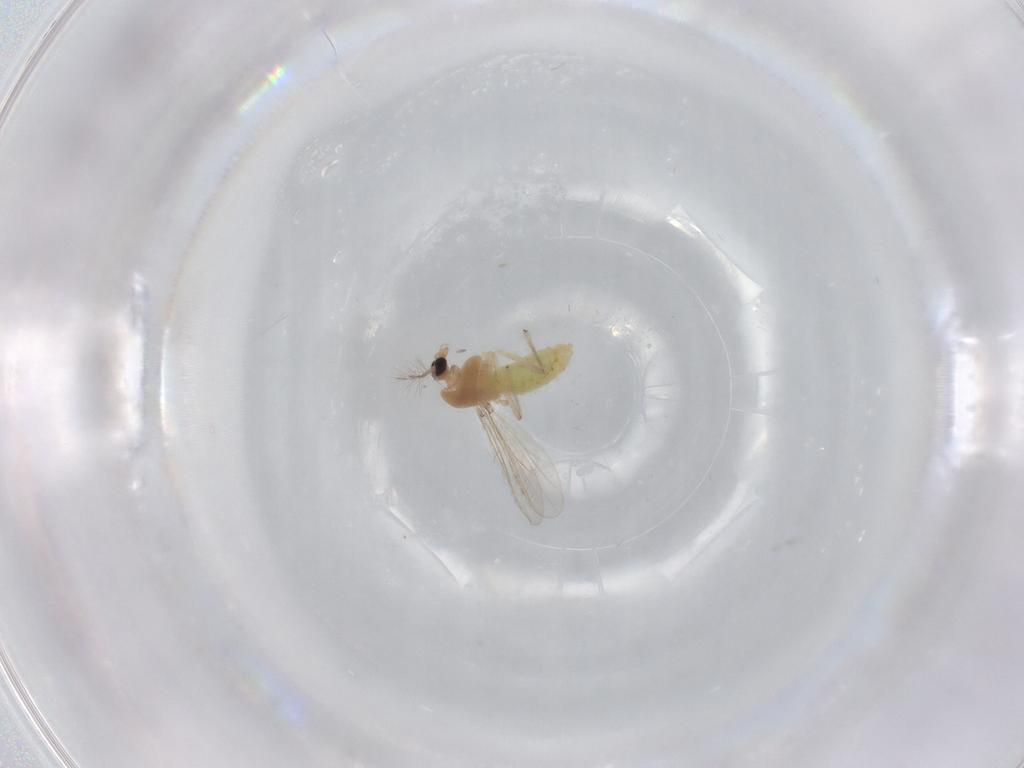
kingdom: Animalia
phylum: Arthropoda
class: Insecta
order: Diptera
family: Chironomidae
